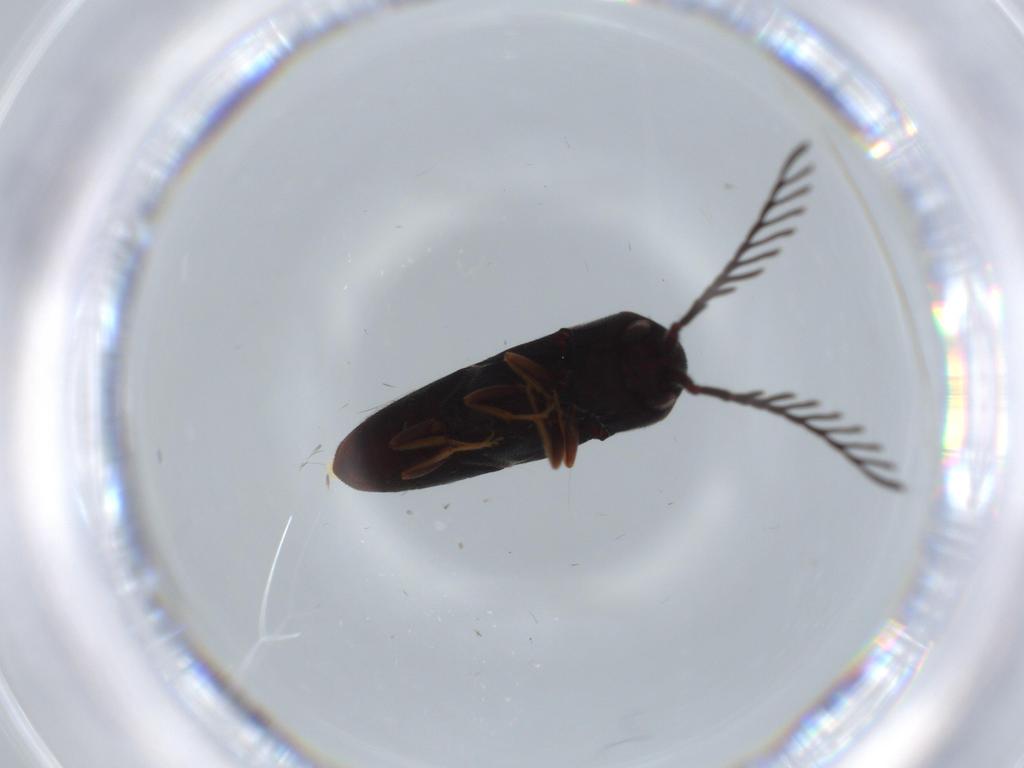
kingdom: Animalia
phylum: Arthropoda
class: Insecta
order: Coleoptera
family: Eucnemidae
